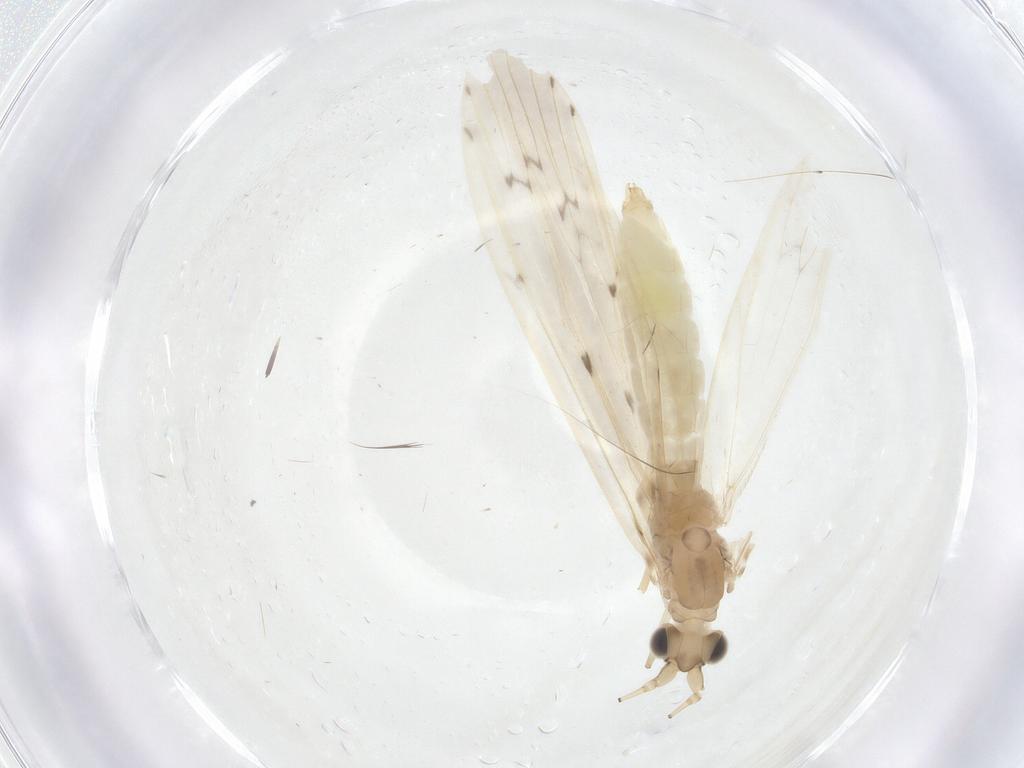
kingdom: Animalia
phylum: Arthropoda
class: Insecta
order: Trichoptera
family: Leptoceridae
